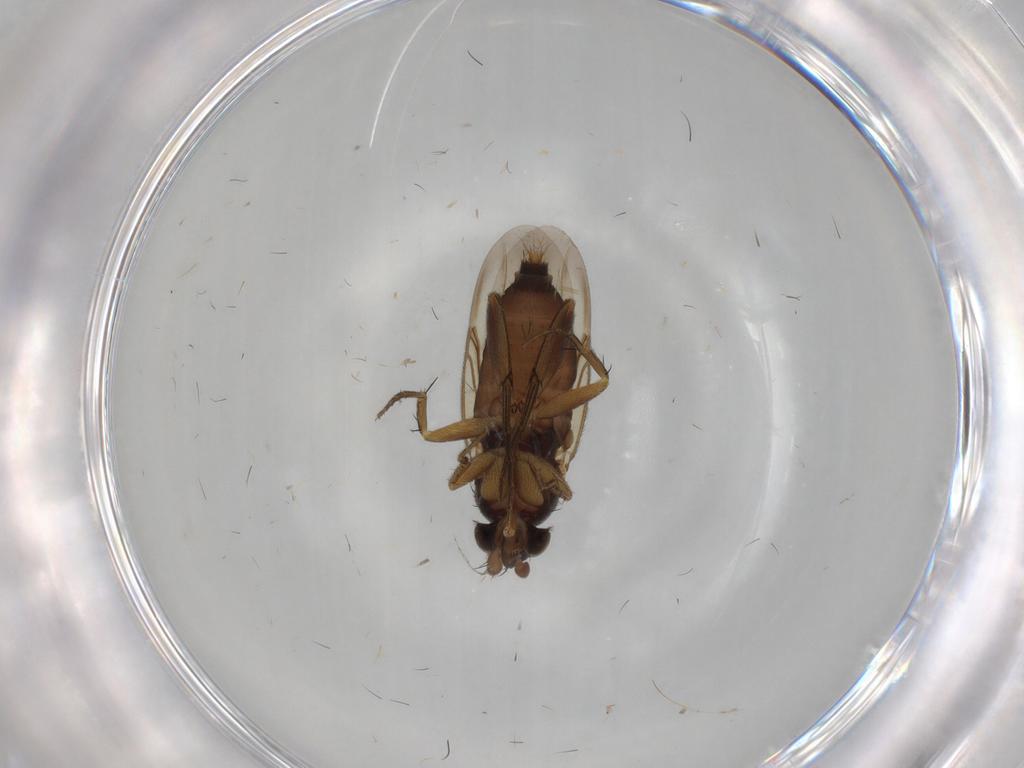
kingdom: Animalia
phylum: Arthropoda
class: Insecta
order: Diptera
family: Phoridae
